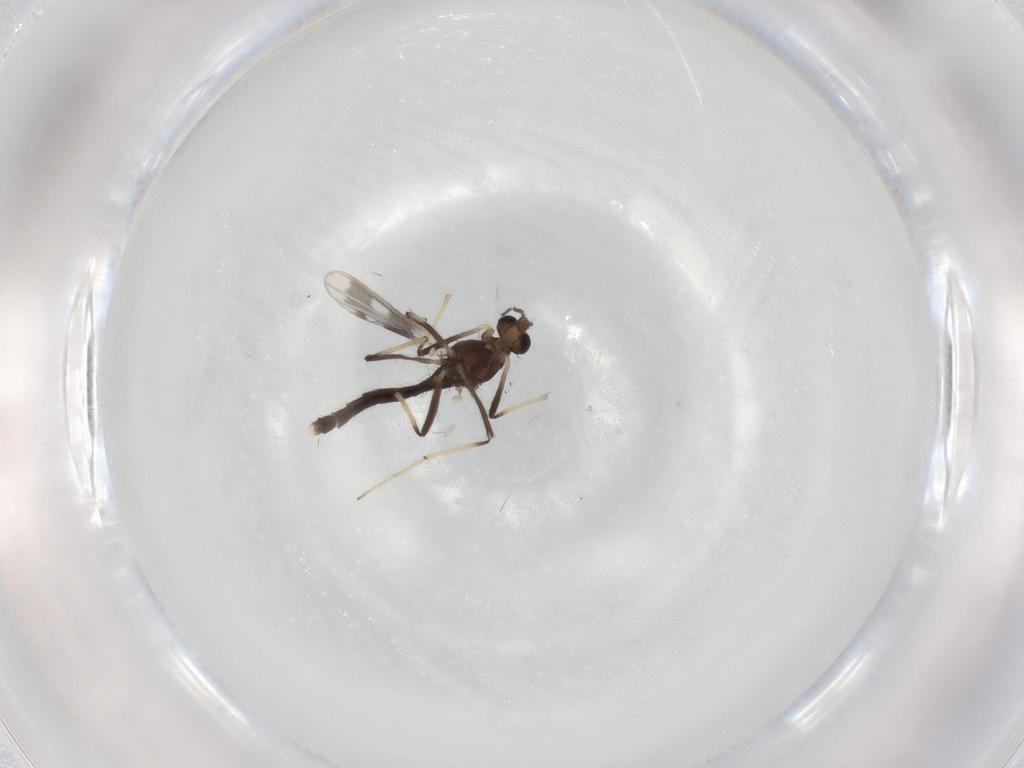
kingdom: Animalia
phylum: Arthropoda
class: Insecta
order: Diptera
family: Chironomidae
